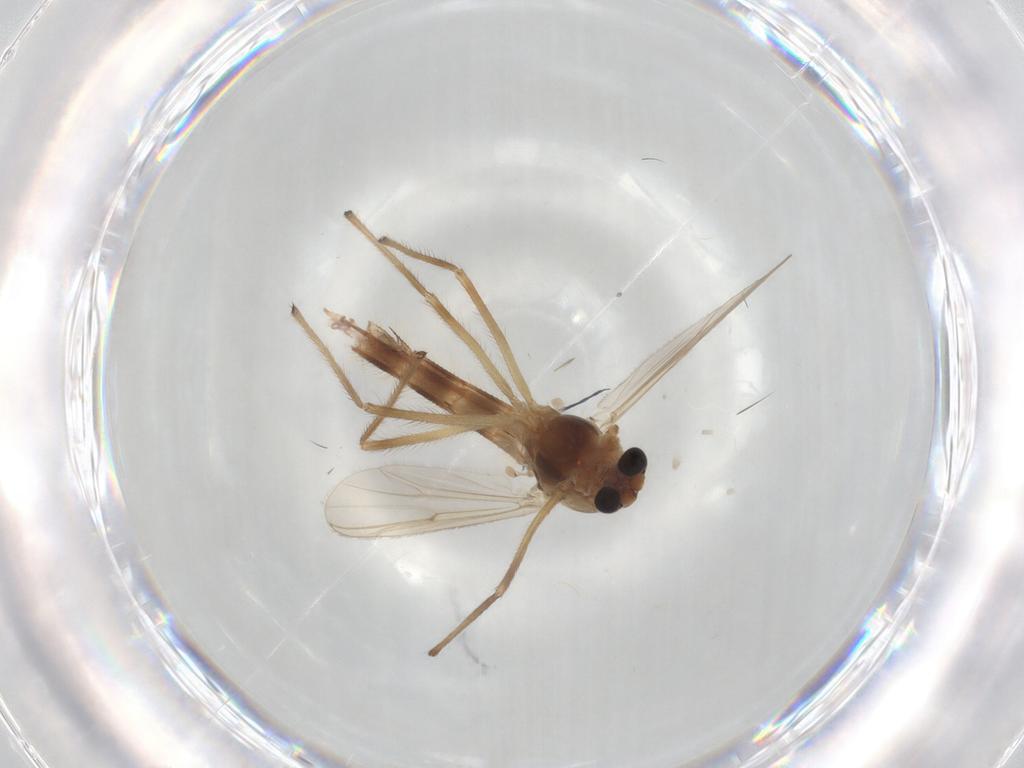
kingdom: Animalia
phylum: Arthropoda
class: Insecta
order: Diptera
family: Chironomidae
